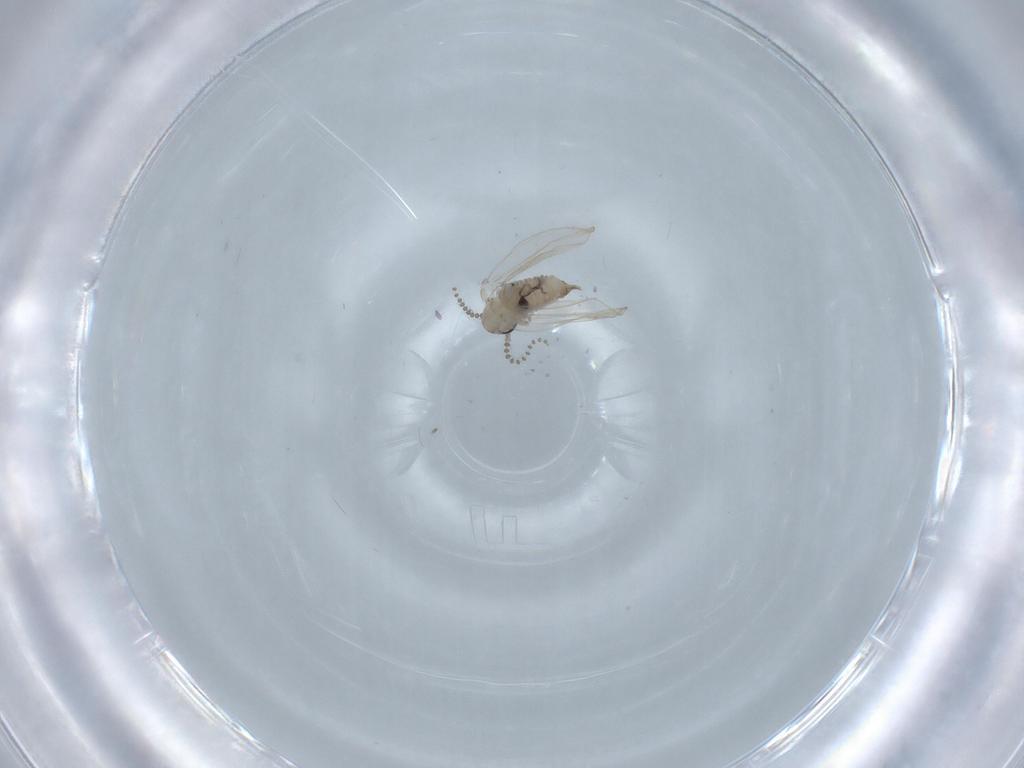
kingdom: Animalia
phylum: Arthropoda
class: Insecta
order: Diptera
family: Psychodidae
